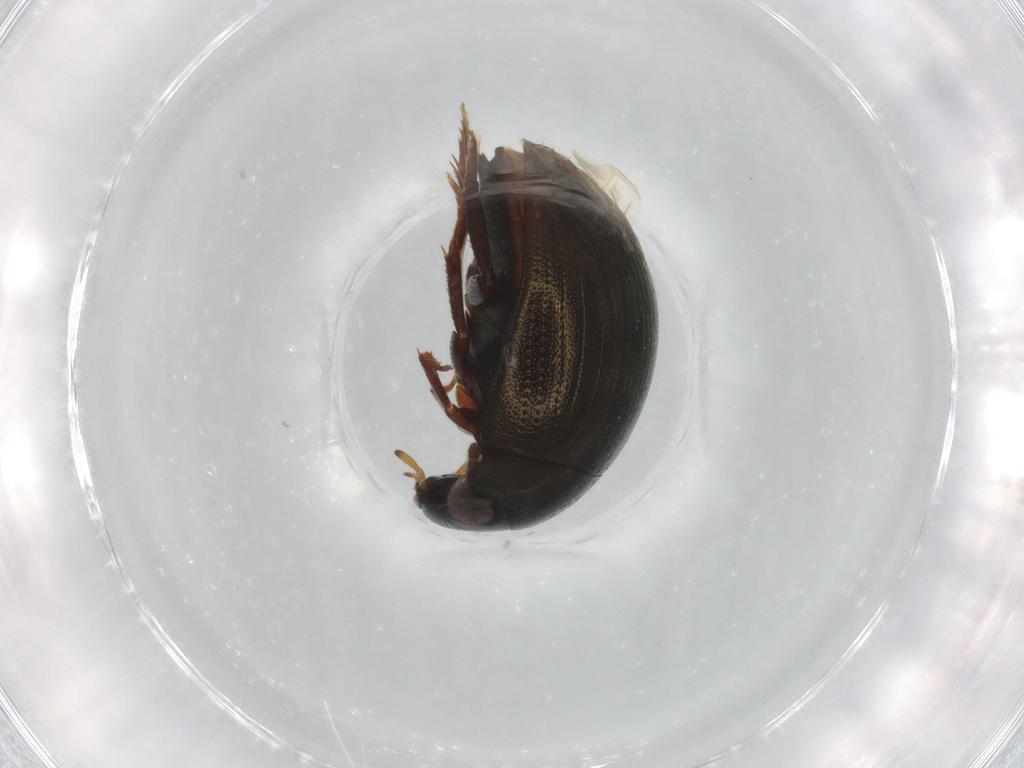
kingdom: Animalia
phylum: Arthropoda
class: Insecta
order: Coleoptera
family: Hydrophilidae
